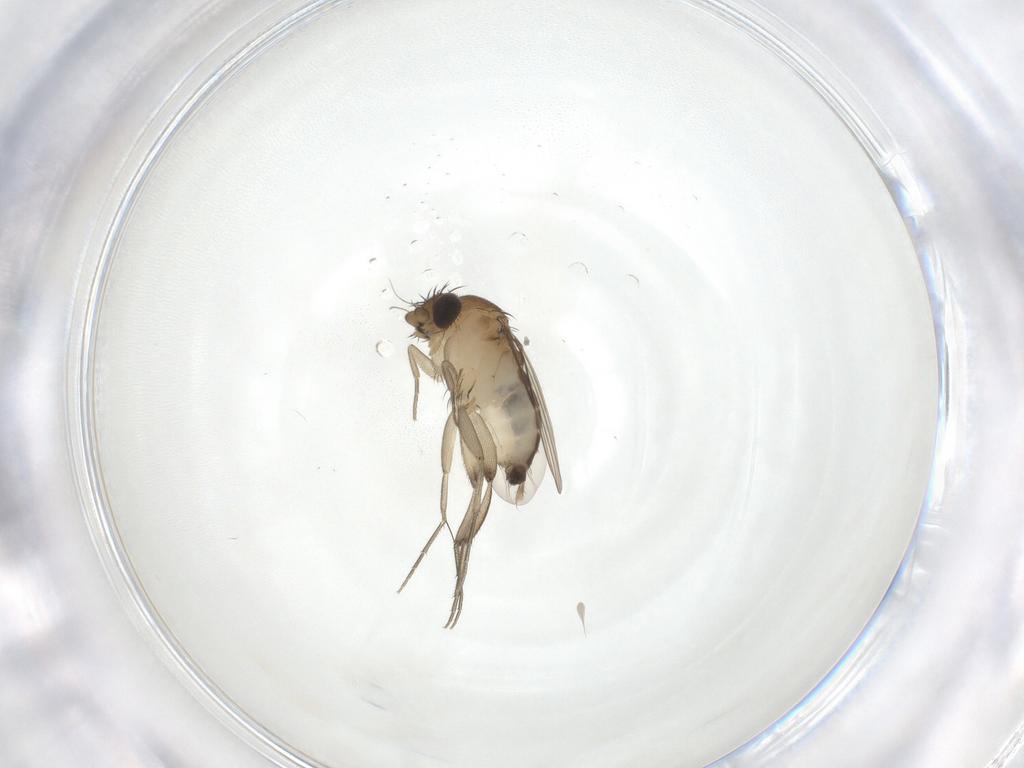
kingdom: Animalia
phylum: Arthropoda
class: Insecta
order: Diptera
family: Phoridae
